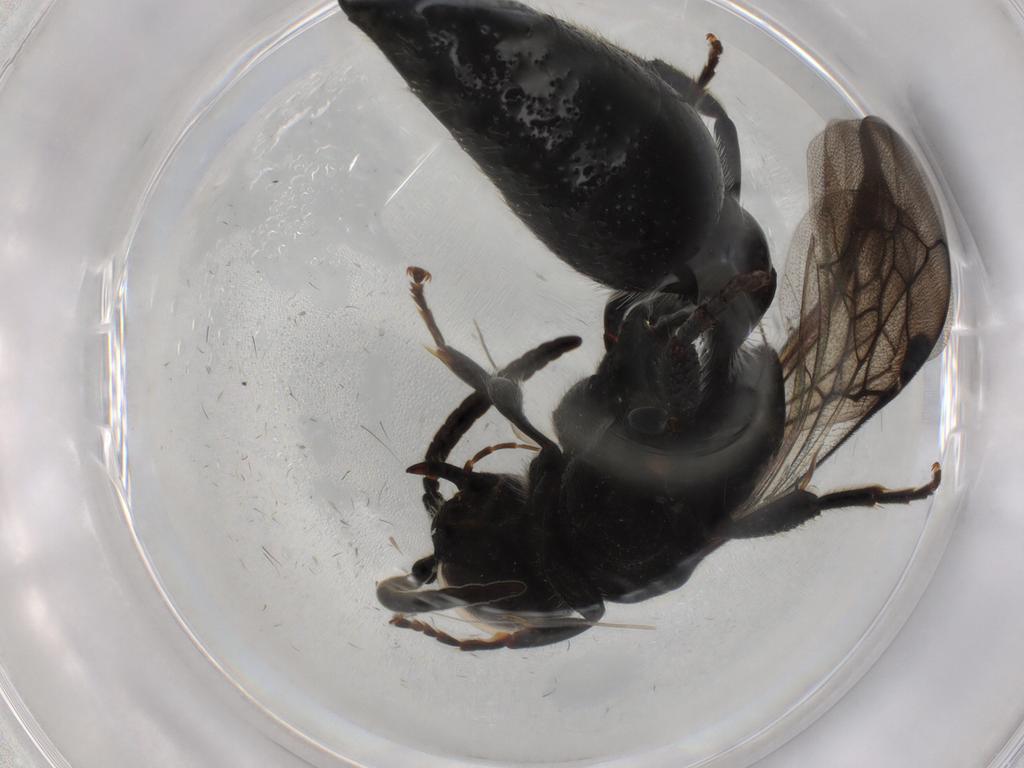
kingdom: Animalia
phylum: Arthropoda
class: Insecta
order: Hymenoptera
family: Tiphiidae
